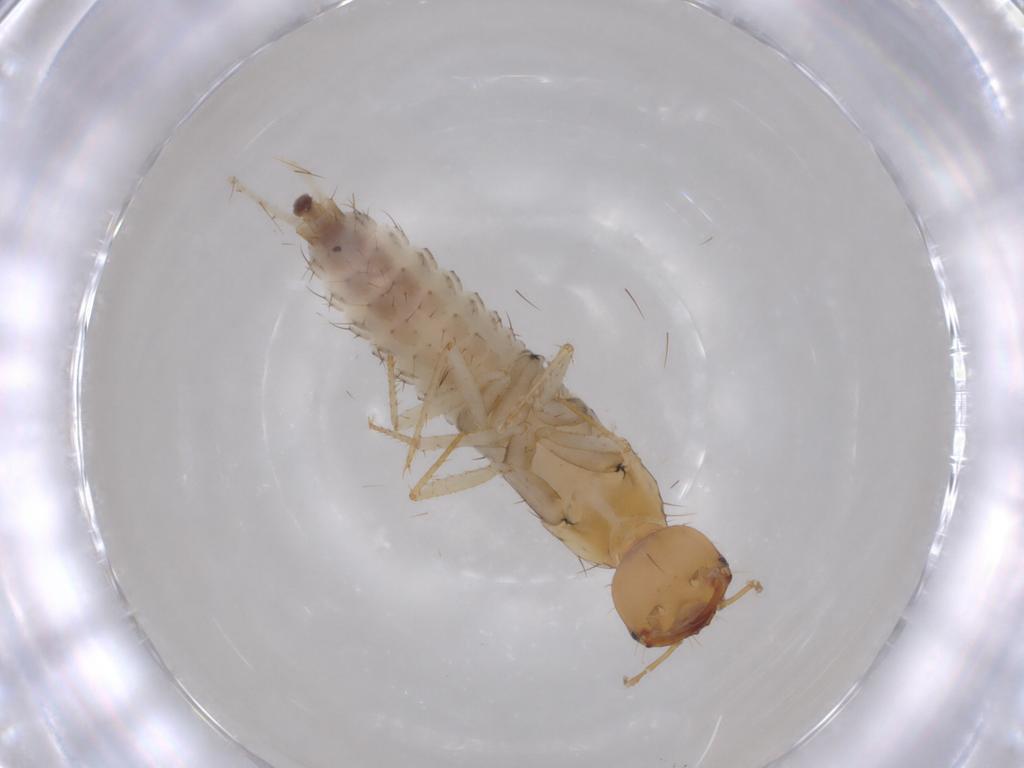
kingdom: Animalia
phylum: Arthropoda
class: Insecta
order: Coleoptera
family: Staphylinidae
